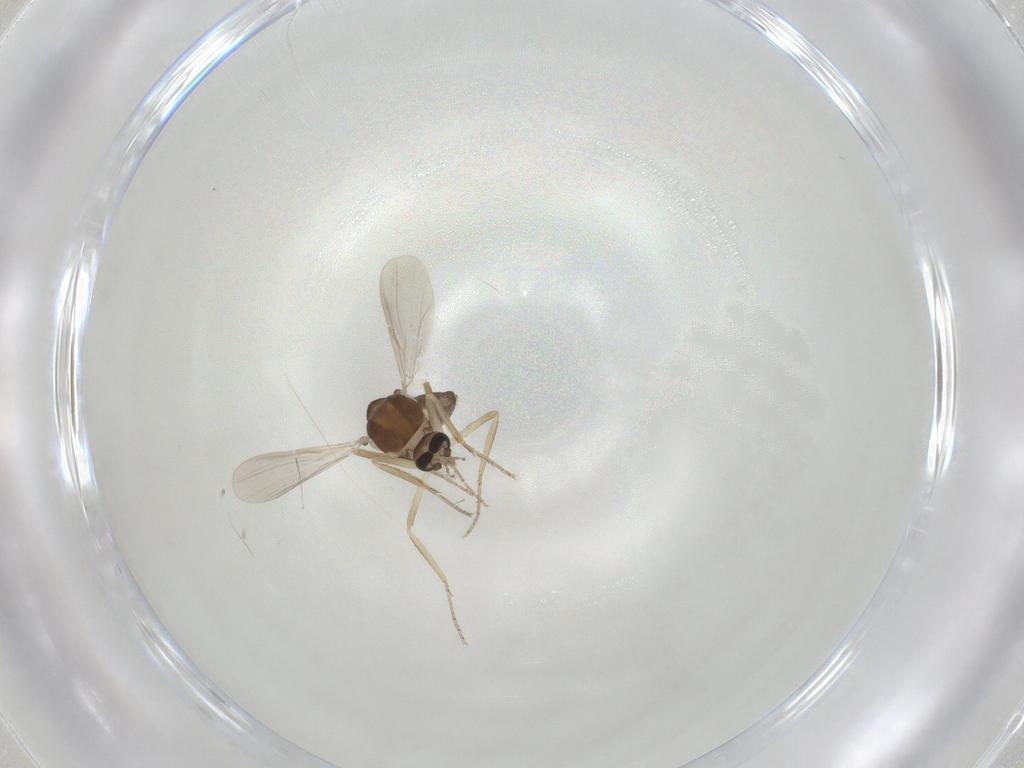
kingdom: Animalia
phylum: Arthropoda
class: Insecta
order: Diptera
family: Ceratopogonidae
